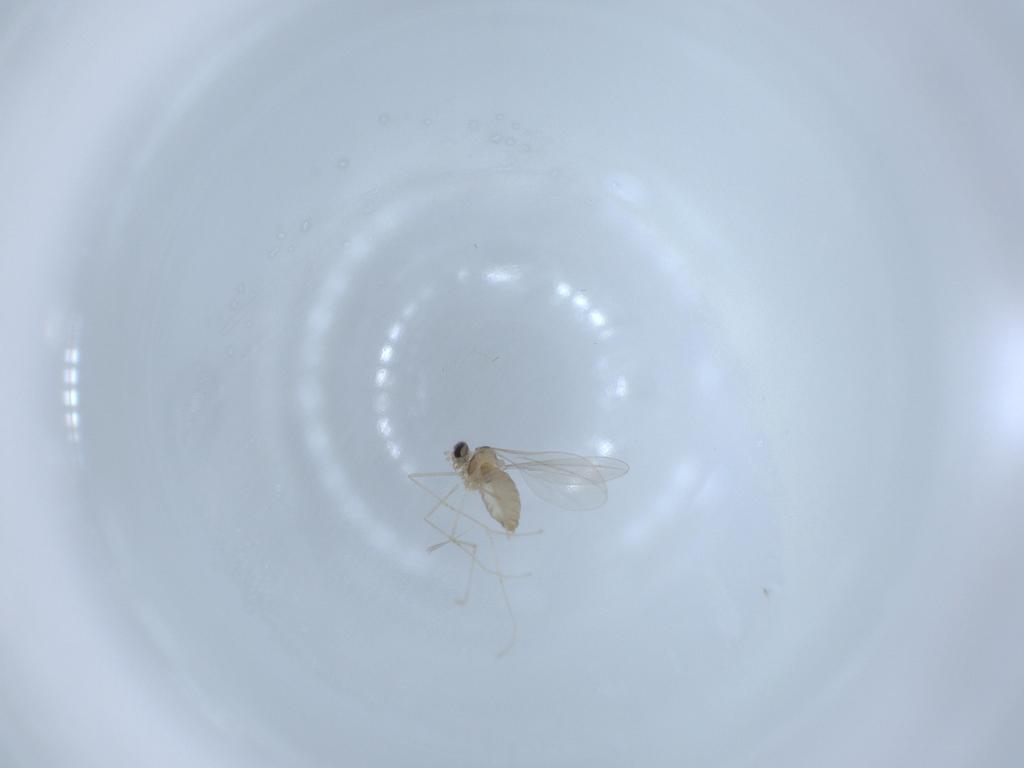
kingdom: Animalia
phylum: Arthropoda
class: Insecta
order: Diptera
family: Cecidomyiidae
